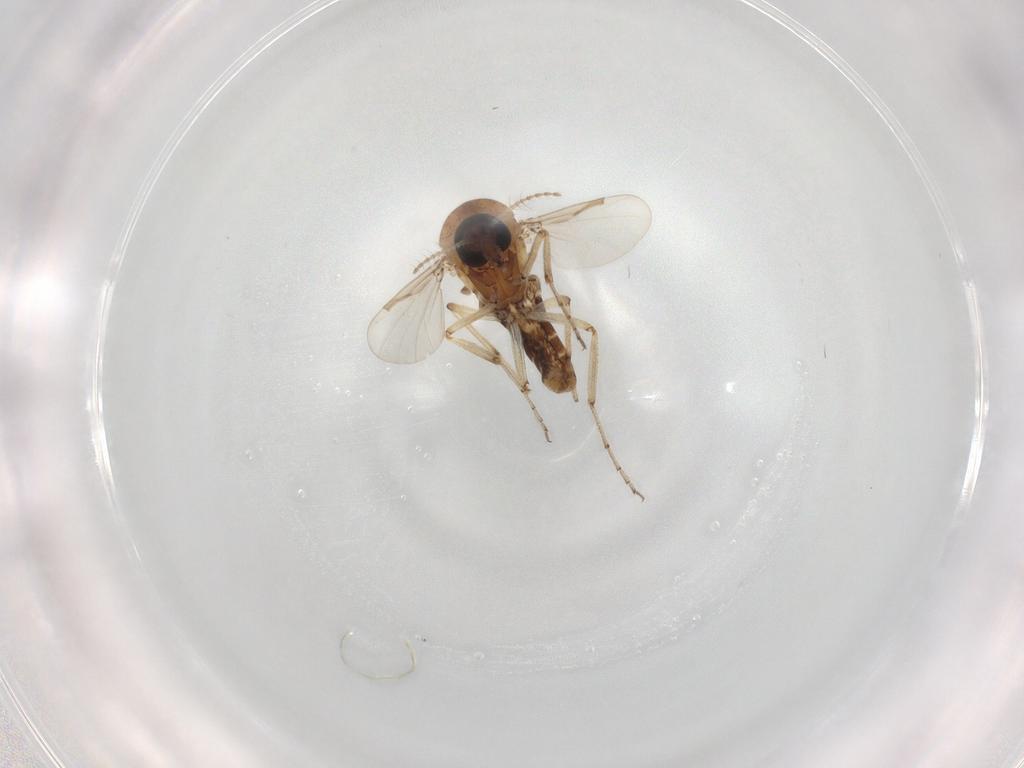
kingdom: Animalia
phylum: Arthropoda
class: Insecta
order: Diptera
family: Ceratopogonidae
